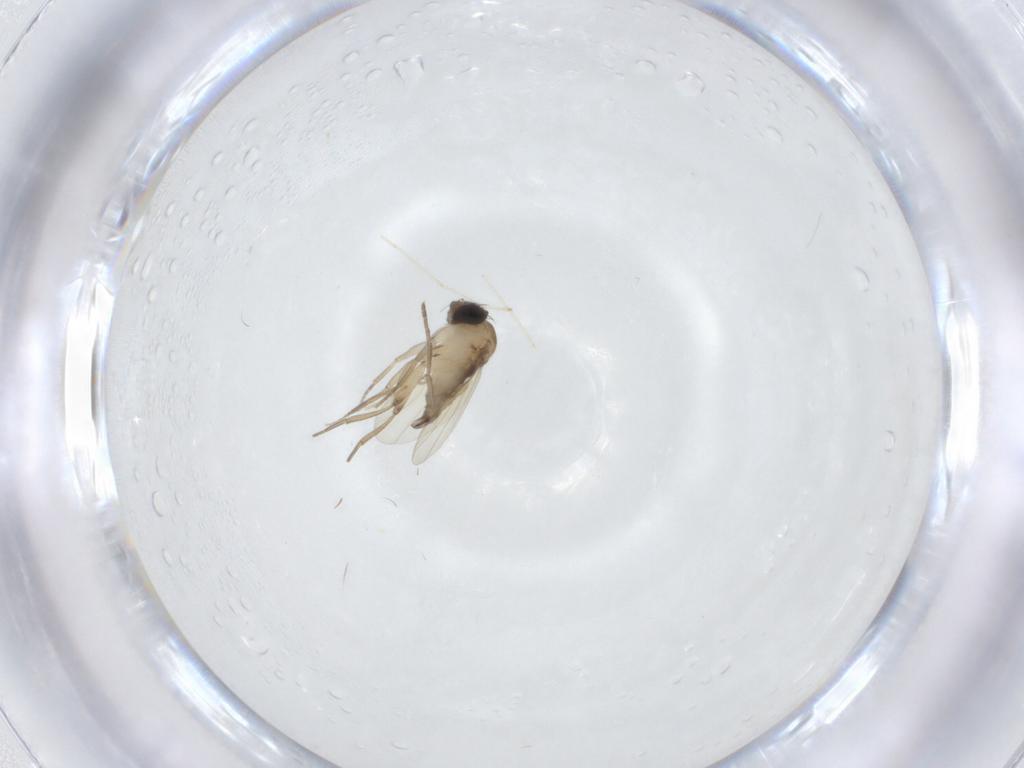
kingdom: Animalia
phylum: Arthropoda
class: Insecta
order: Diptera
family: Phoridae
